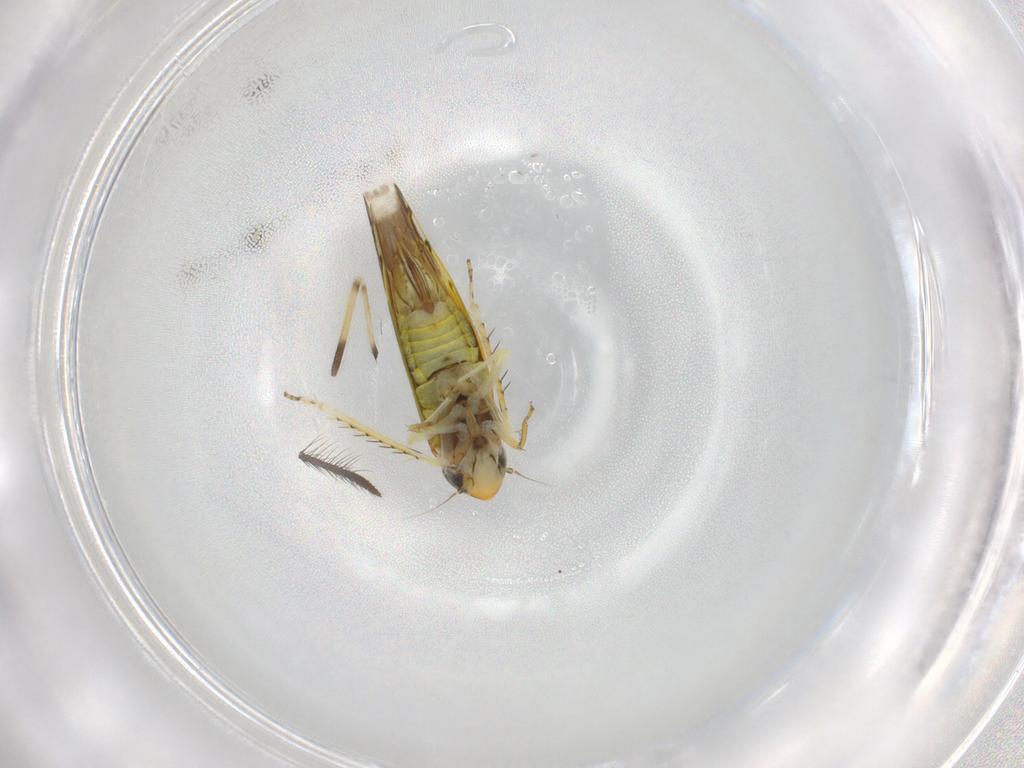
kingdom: Animalia
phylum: Arthropoda
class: Insecta
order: Hemiptera
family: Cicadellidae
